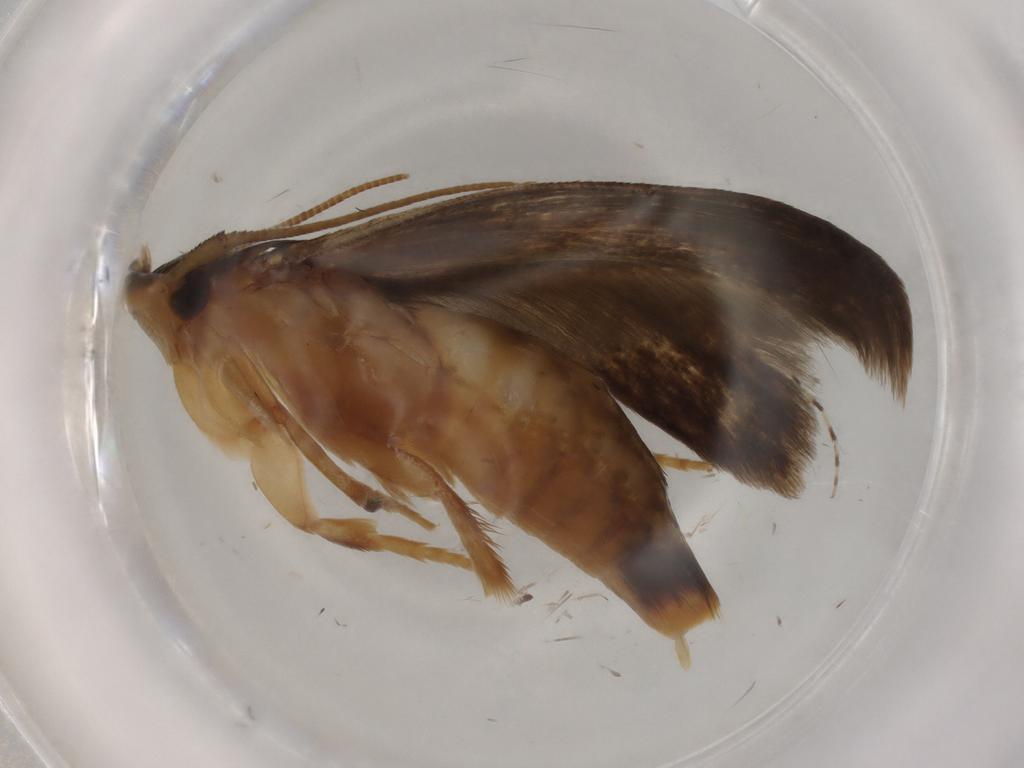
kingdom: Animalia
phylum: Arthropoda
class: Insecta
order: Lepidoptera
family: Tineidae
